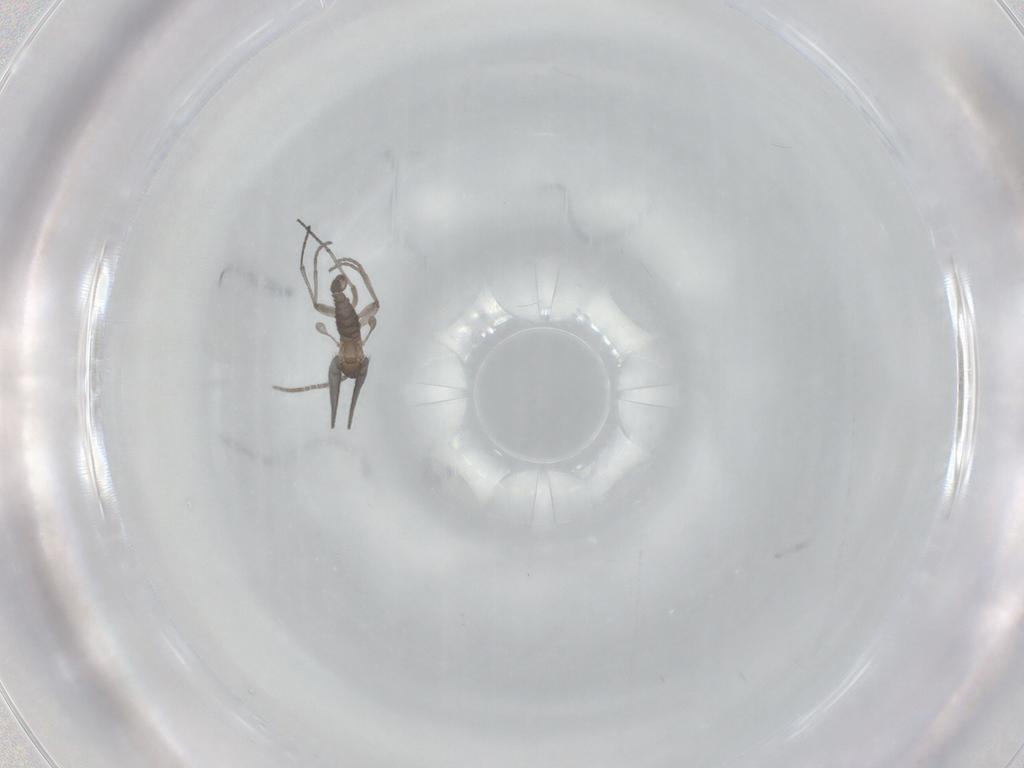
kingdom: Animalia
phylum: Arthropoda
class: Insecta
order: Diptera
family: Sciaridae
